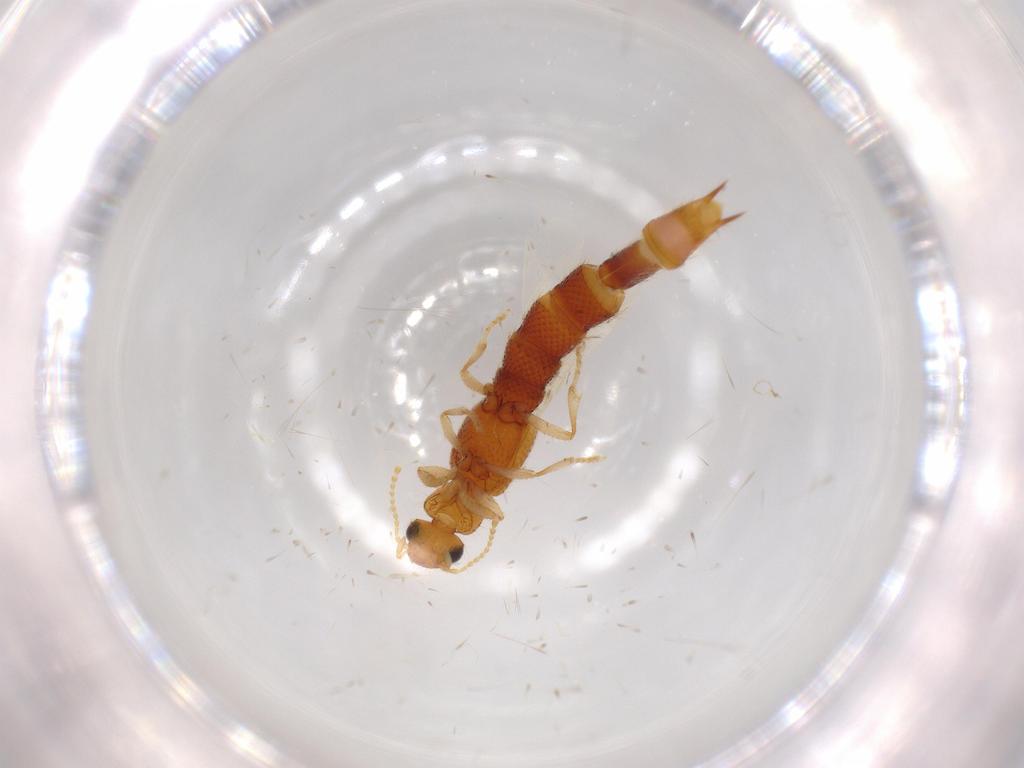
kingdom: Animalia
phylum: Arthropoda
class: Insecta
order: Coleoptera
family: Staphylinidae
